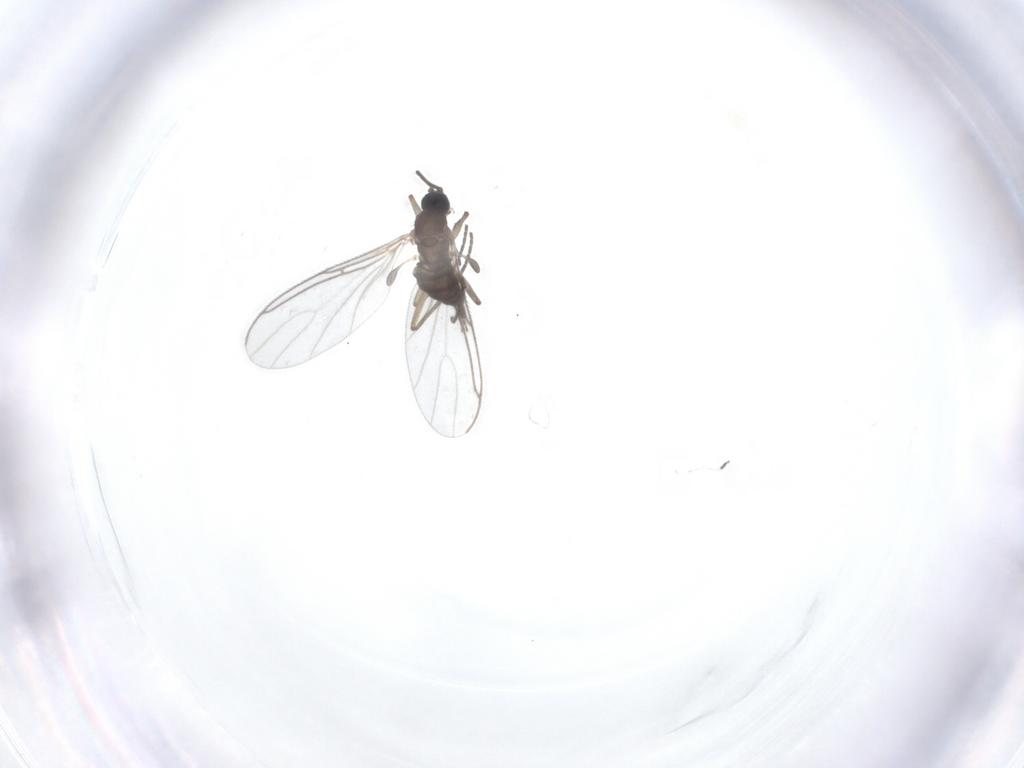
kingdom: Animalia
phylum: Arthropoda
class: Insecta
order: Diptera
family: Sciaridae
